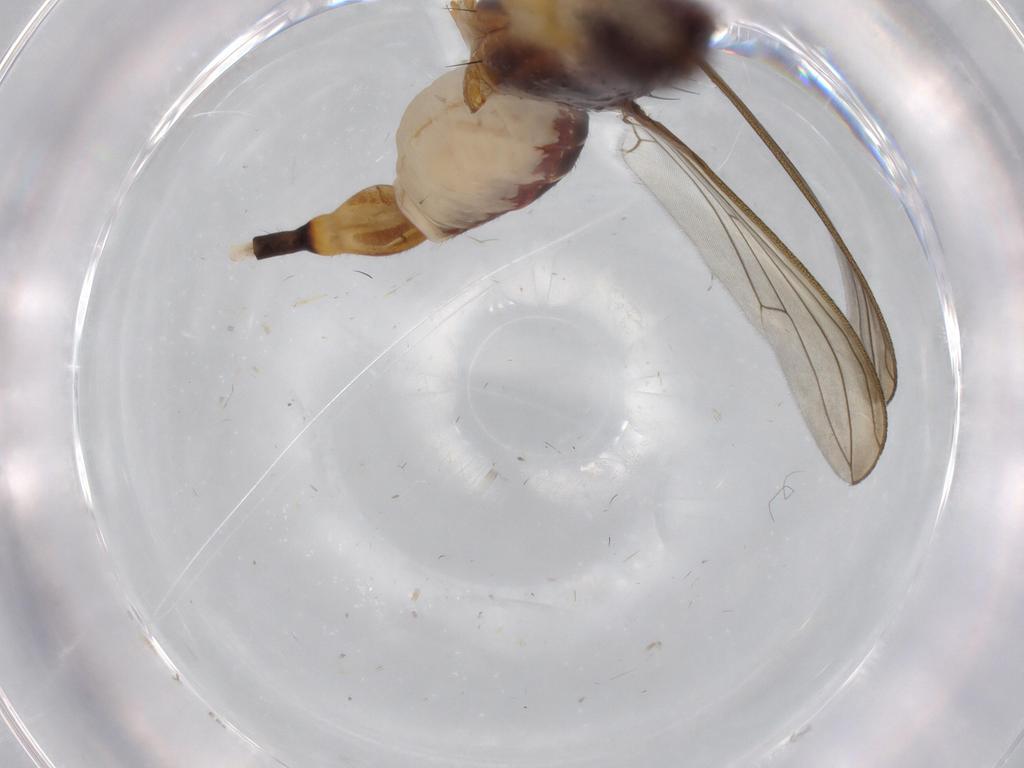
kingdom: Animalia
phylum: Arthropoda
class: Insecta
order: Diptera
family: Micropezidae
